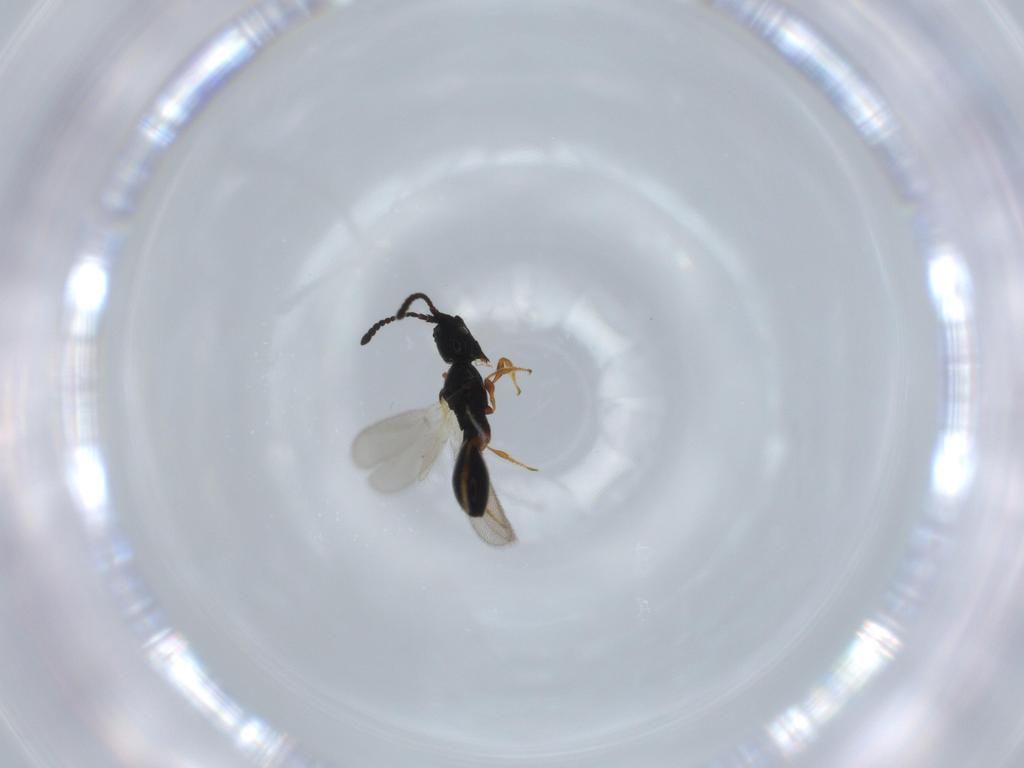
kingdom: Animalia
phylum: Arthropoda
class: Insecta
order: Hymenoptera
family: Diapriidae
